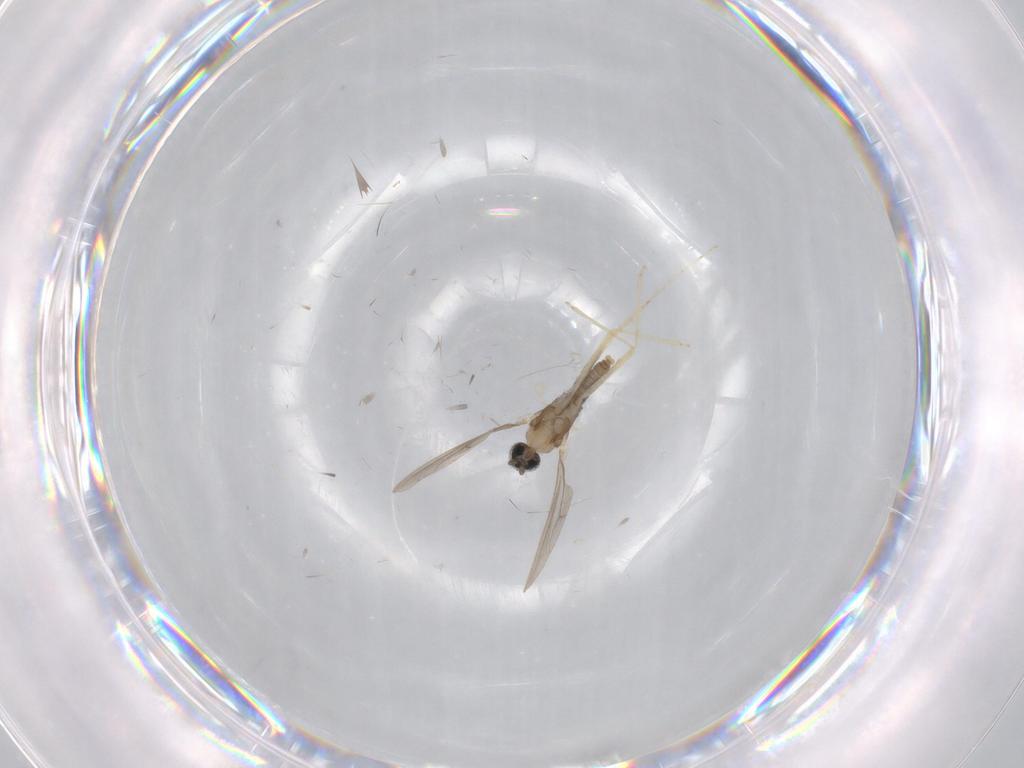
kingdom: Animalia
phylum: Arthropoda
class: Insecta
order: Diptera
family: Cecidomyiidae
